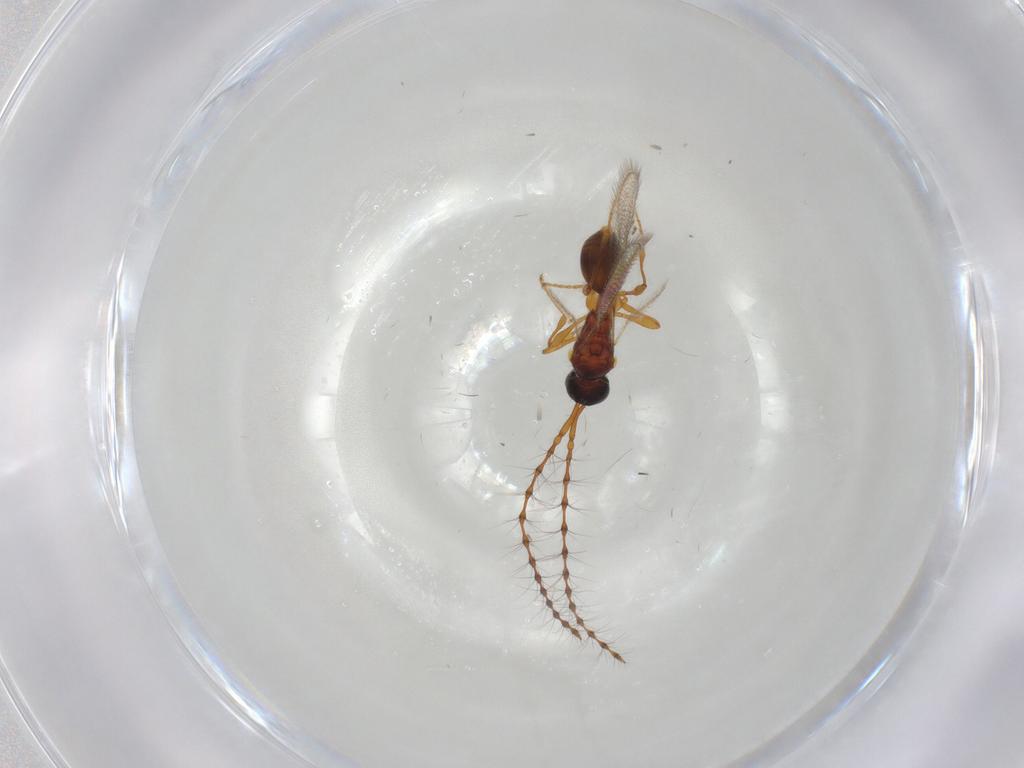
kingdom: Animalia
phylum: Arthropoda
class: Insecta
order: Hymenoptera
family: Diapriidae
